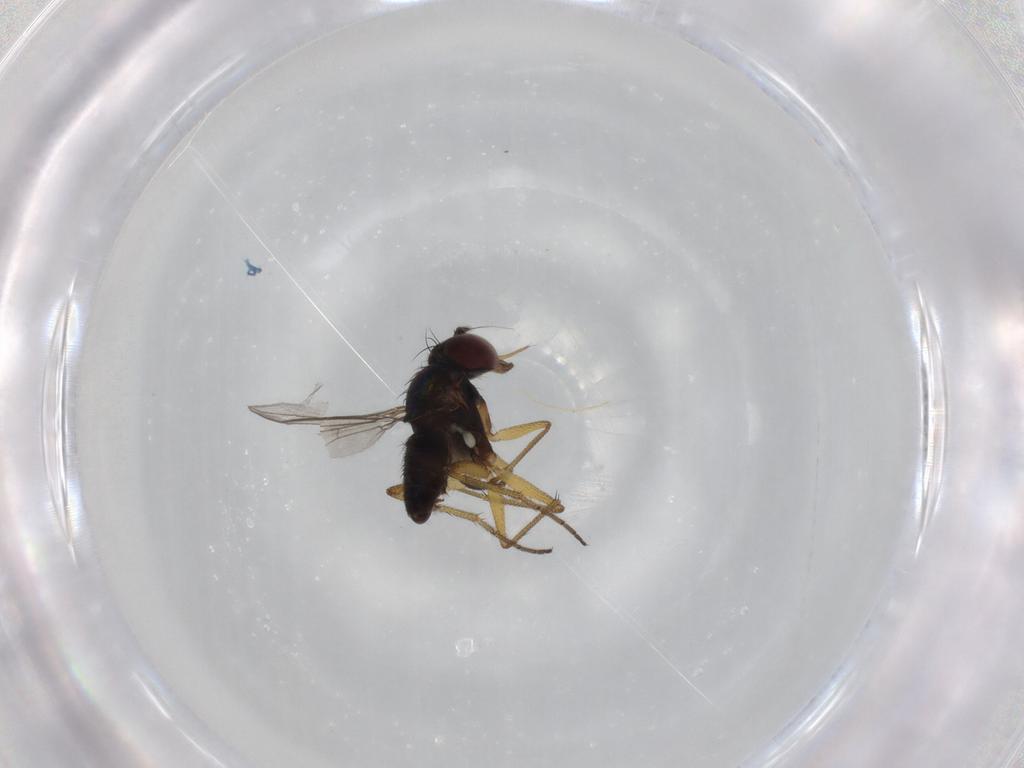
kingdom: Animalia
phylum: Arthropoda
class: Insecta
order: Diptera
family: Dolichopodidae
